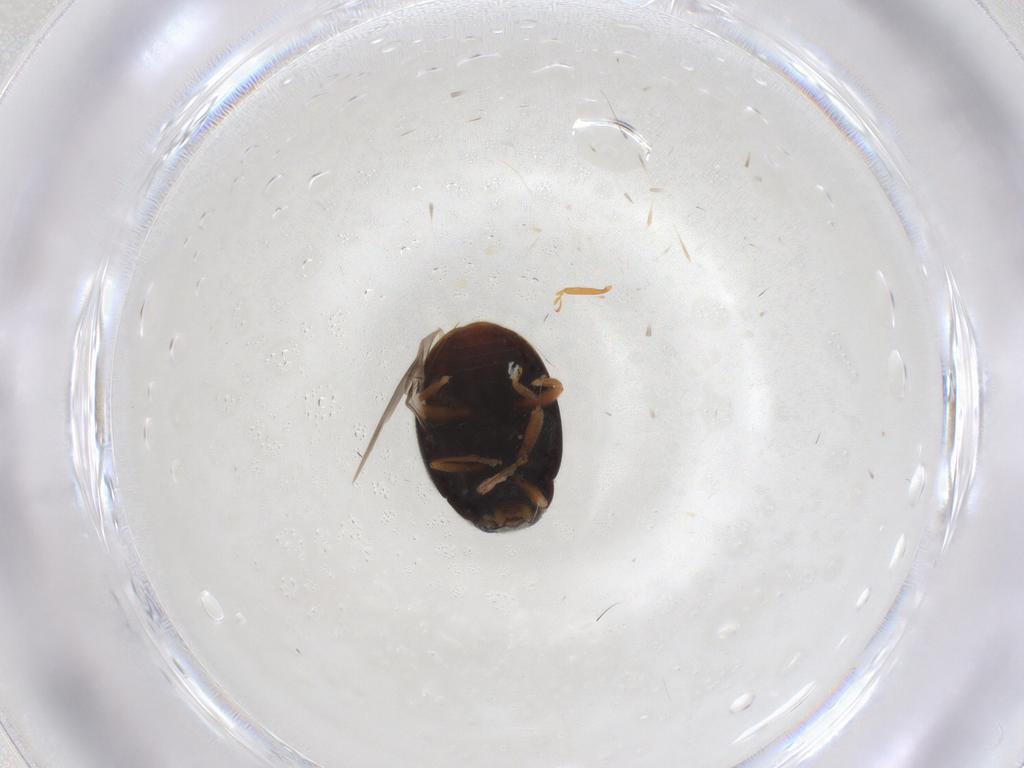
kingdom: Animalia
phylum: Arthropoda
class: Insecta
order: Coleoptera
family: Coccinellidae
